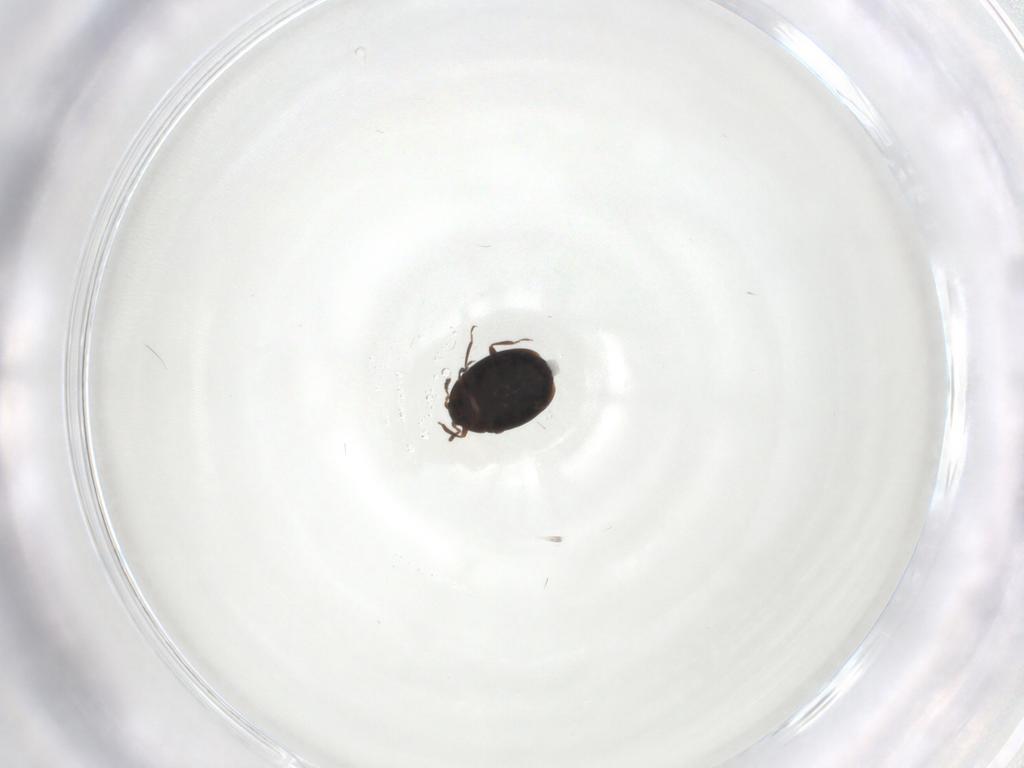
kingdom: Animalia
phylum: Arthropoda
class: Insecta
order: Coleoptera
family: Corylophidae
